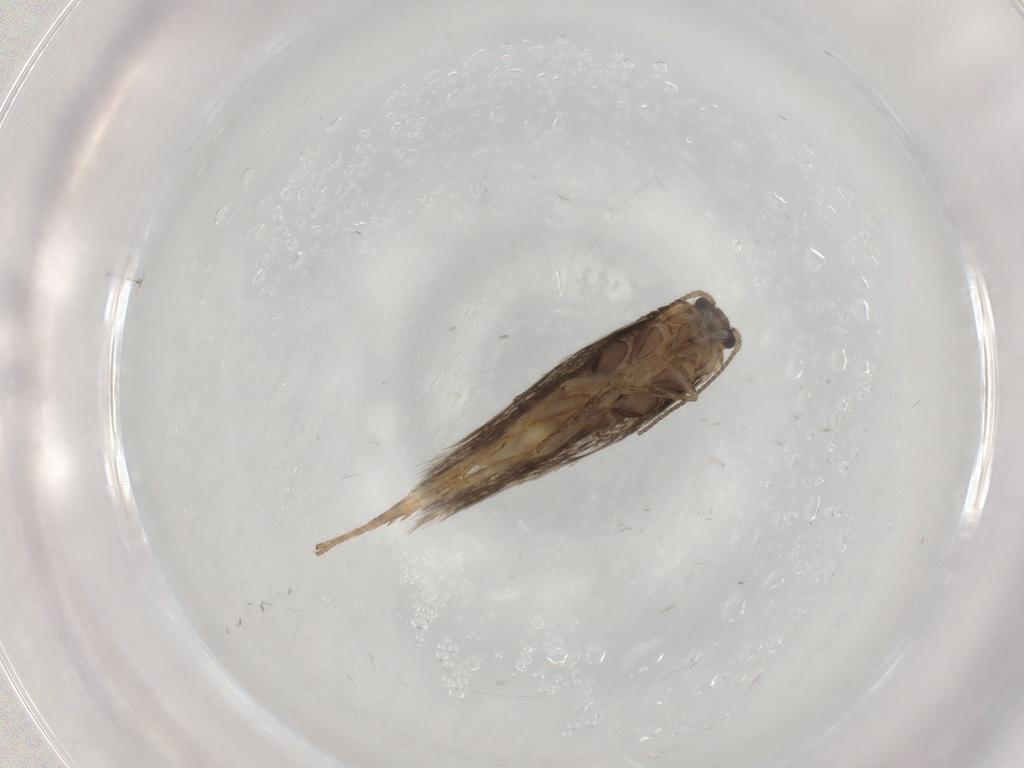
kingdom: Animalia
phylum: Arthropoda
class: Insecta
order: Lepidoptera
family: Nepticulidae
